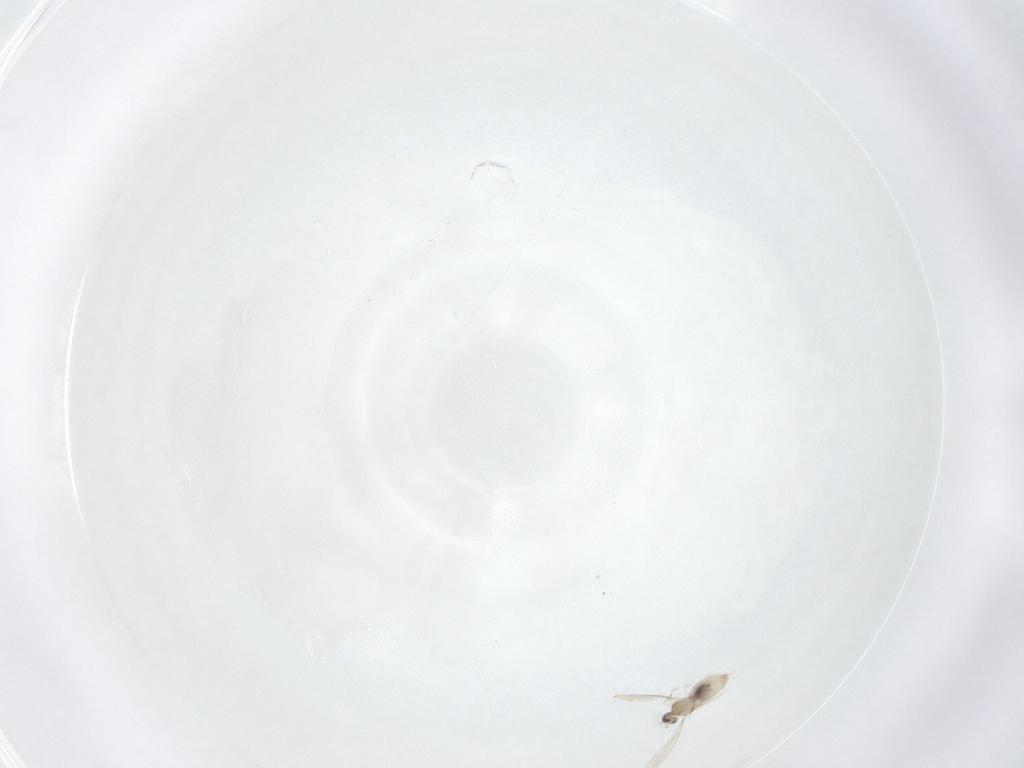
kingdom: Animalia
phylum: Arthropoda
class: Insecta
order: Diptera
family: Cecidomyiidae
